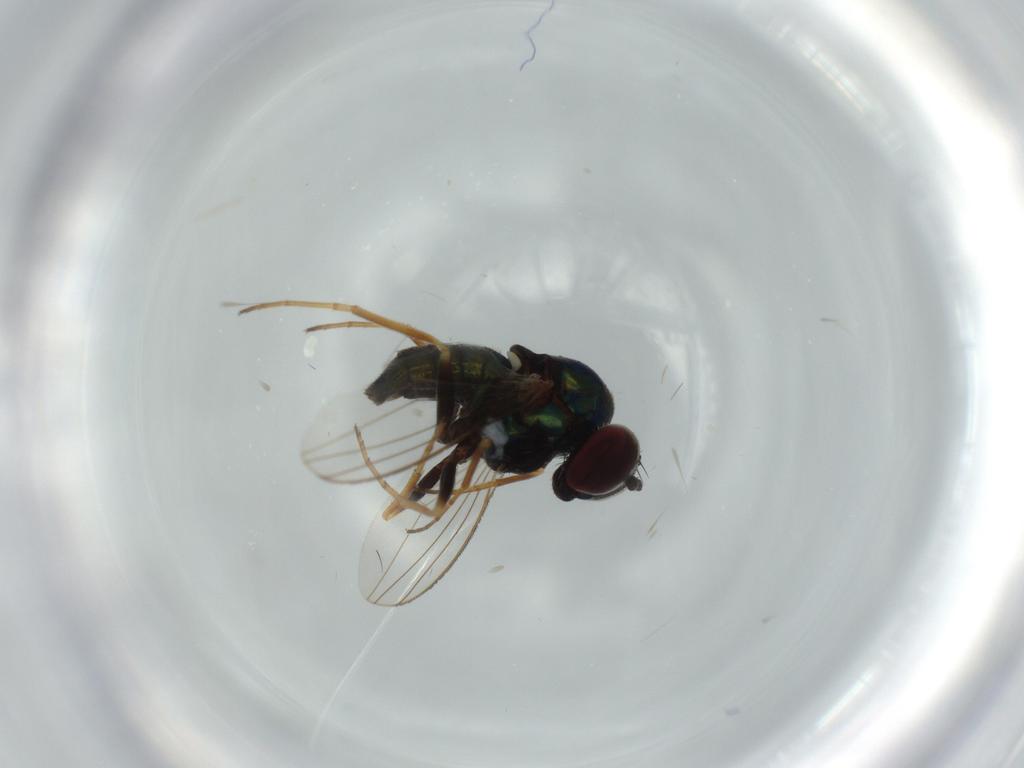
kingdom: Animalia
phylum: Arthropoda
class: Insecta
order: Diptera
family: Dolichopodidae
